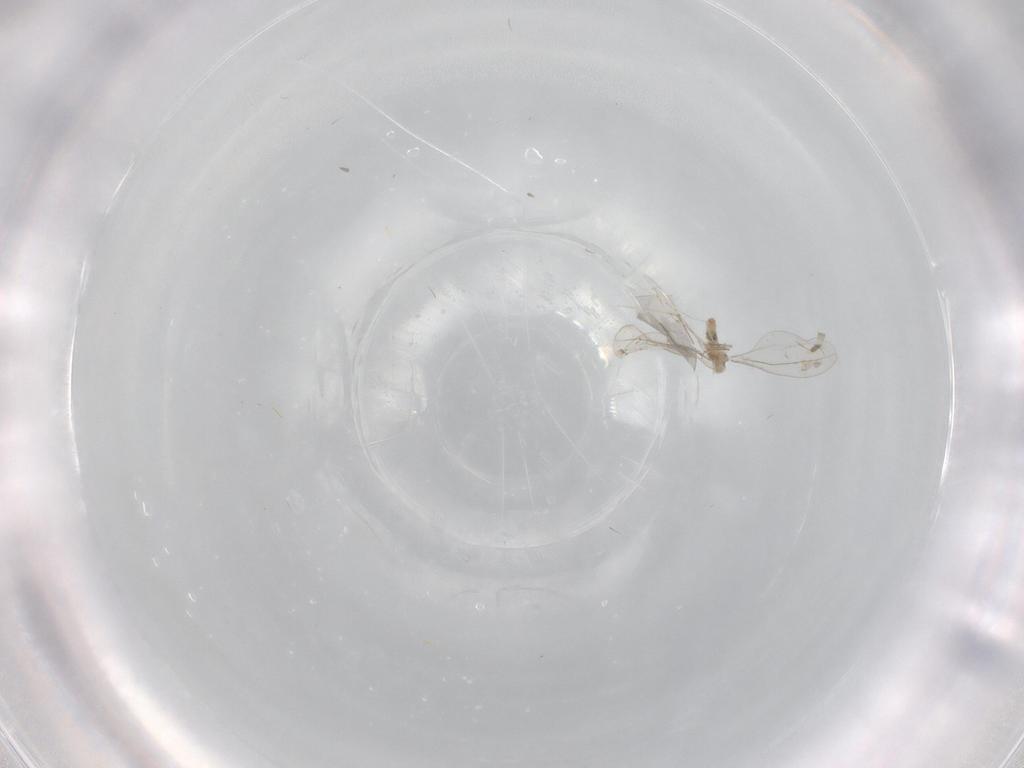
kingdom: Animalia
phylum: Arthropoda
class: Insecta
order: Diptera
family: Cecidomyiidae
